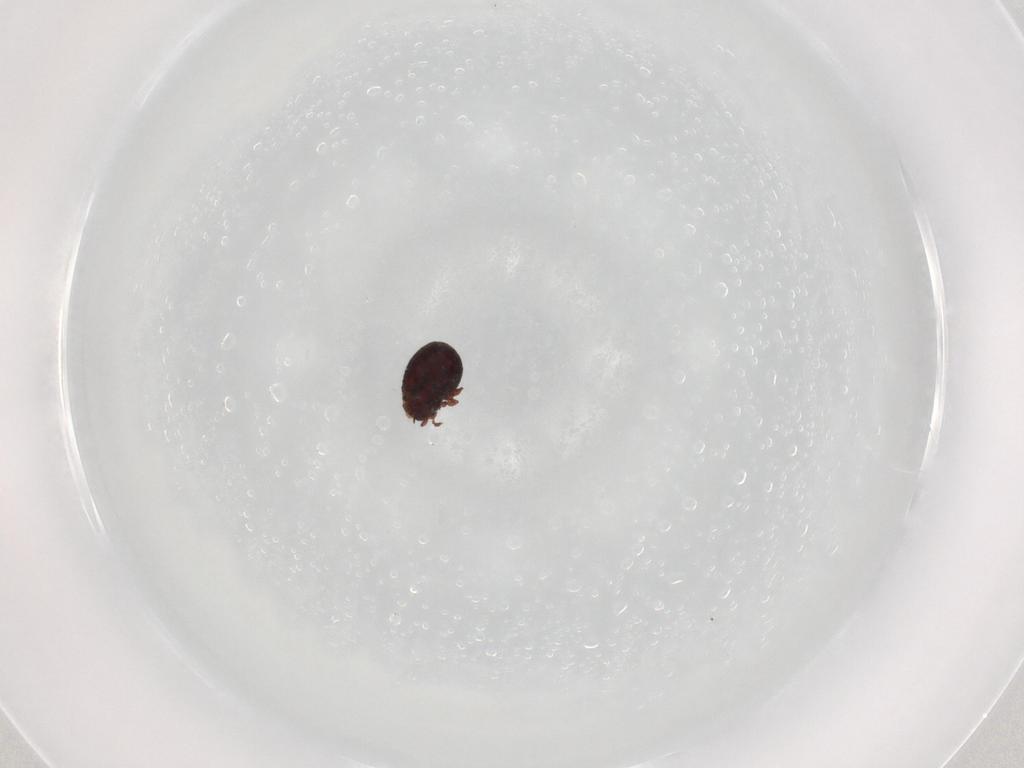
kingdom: Animalia
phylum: Arthropoda
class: Arachnida
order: Sarcoptiformes
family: Cepheusidae
